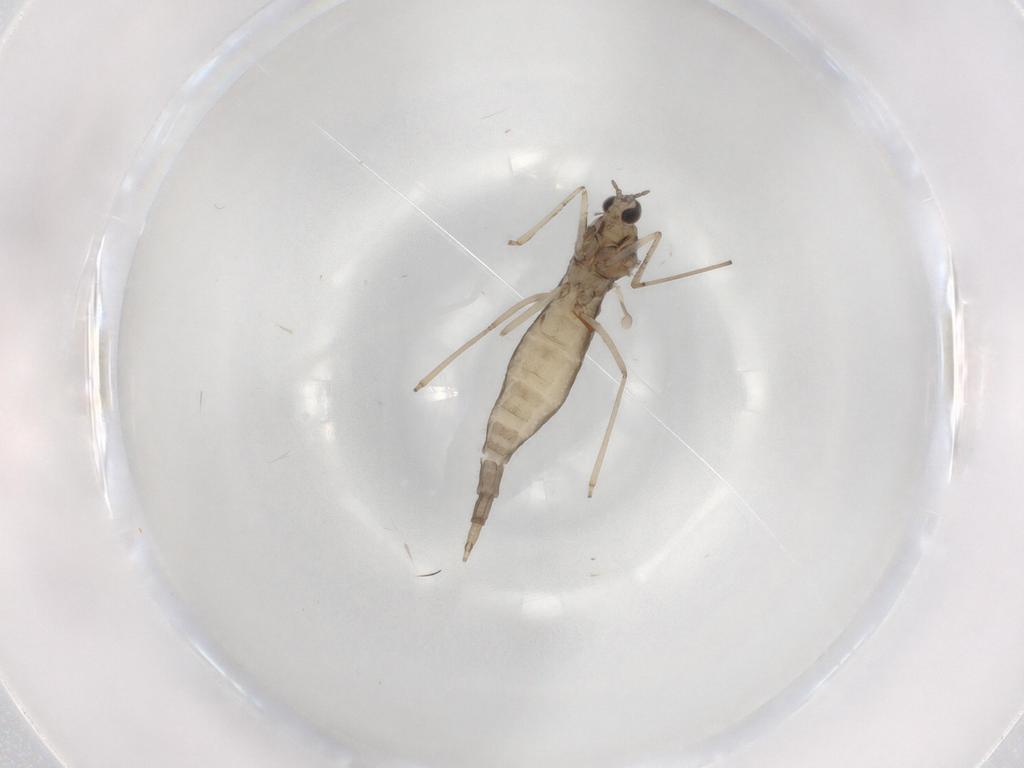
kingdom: Animalia
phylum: Arthropoda
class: Insecta
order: Diptera
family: Cecidomyiidae
